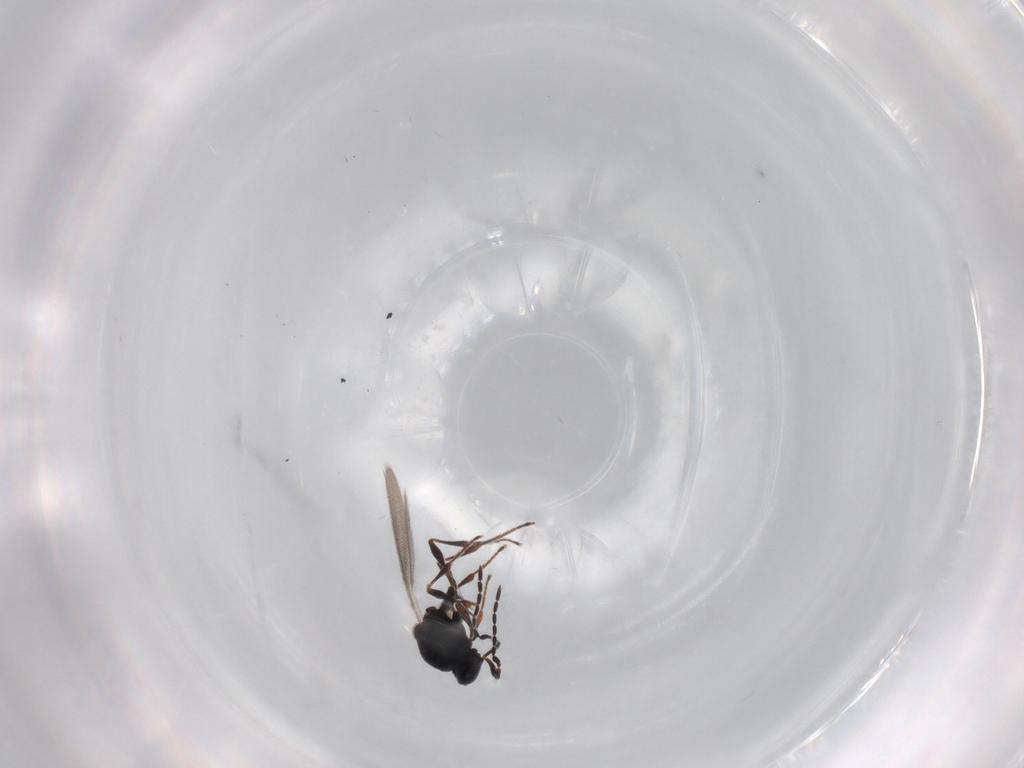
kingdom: Animalia
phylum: Arthropoda
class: Insecta
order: Hymenoptera
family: Platygastridae
